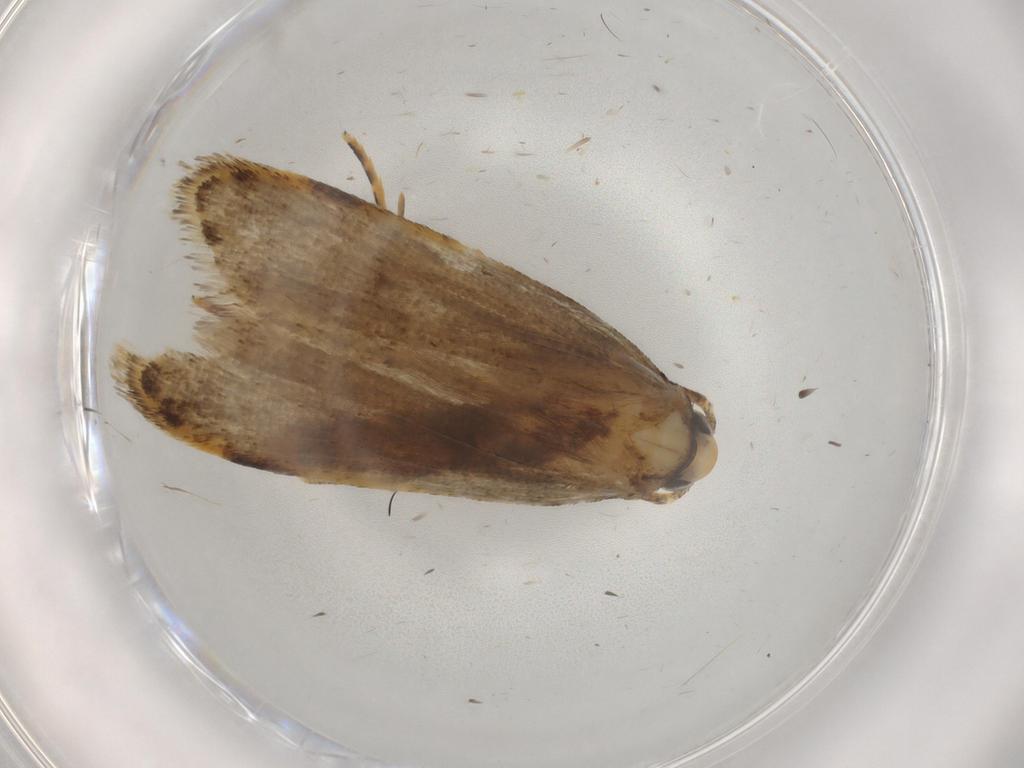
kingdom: Animalia
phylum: Arthropoda
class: Insecta
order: Lepidoptera
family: Autostichidae
